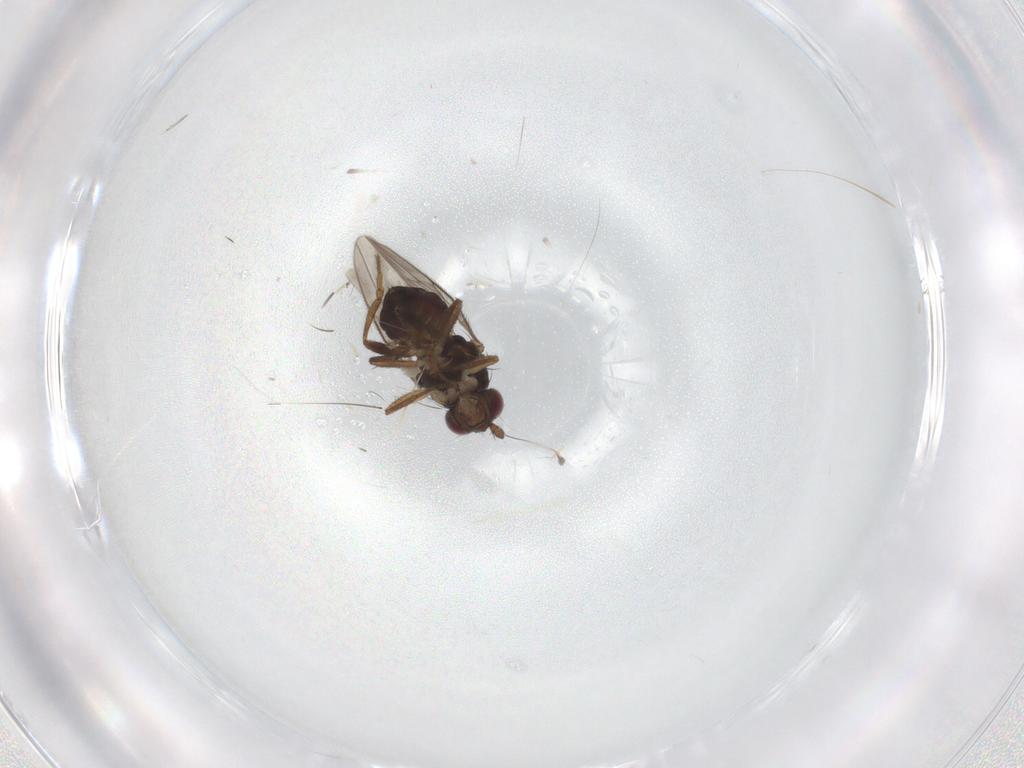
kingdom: Animalia
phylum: Arthropoda
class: Insecta
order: Diptera
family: Sphaeroceridae
